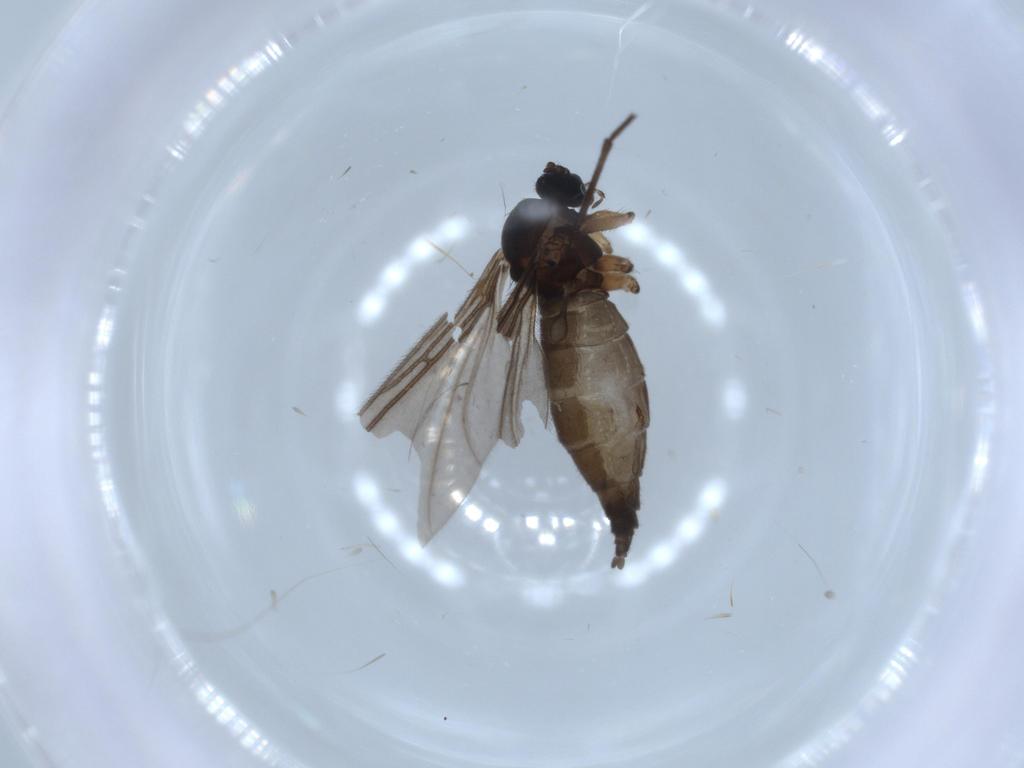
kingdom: Animalia
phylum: Arthropoda
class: Insecta
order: Diptera
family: Sciaridae
